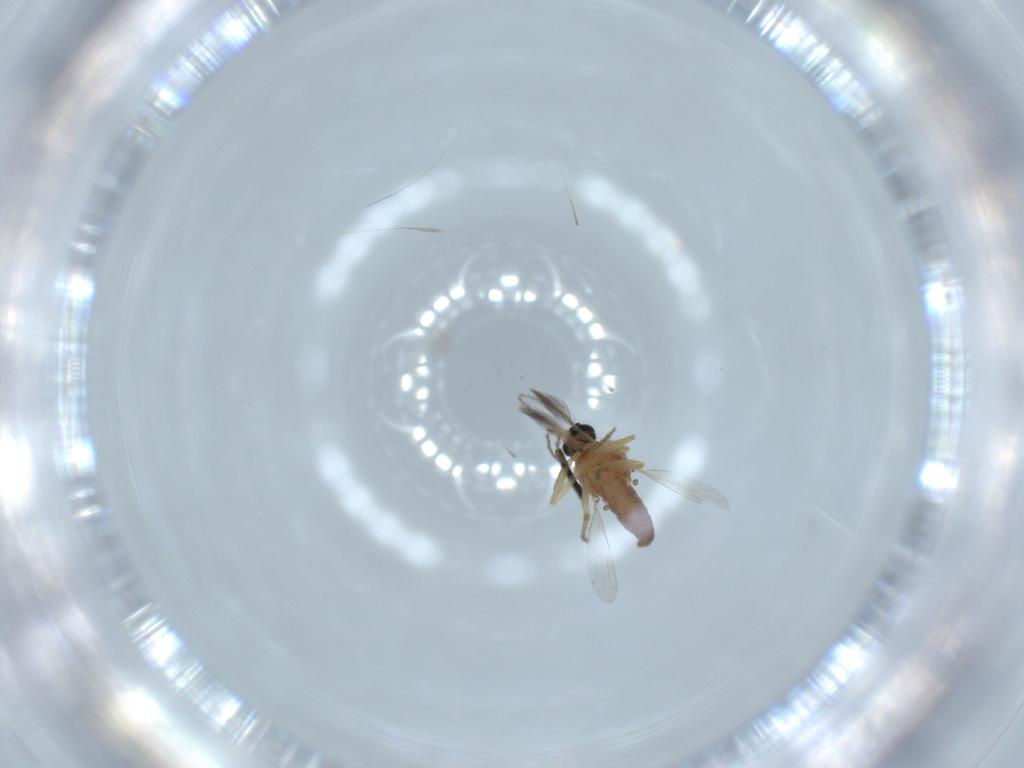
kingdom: Animalia
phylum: Arthropoda
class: Insecta
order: Diptera
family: Ceratopogonidae
